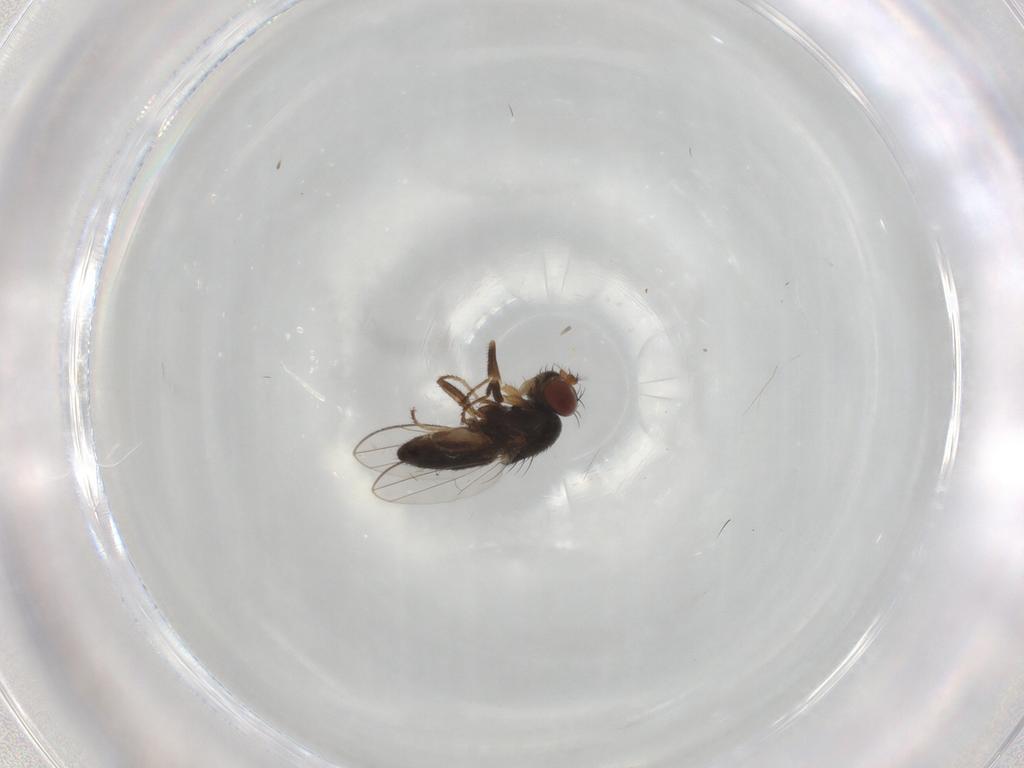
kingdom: Animalia
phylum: Arthropoda
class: Insecta
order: Diptera
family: Ephydridae
